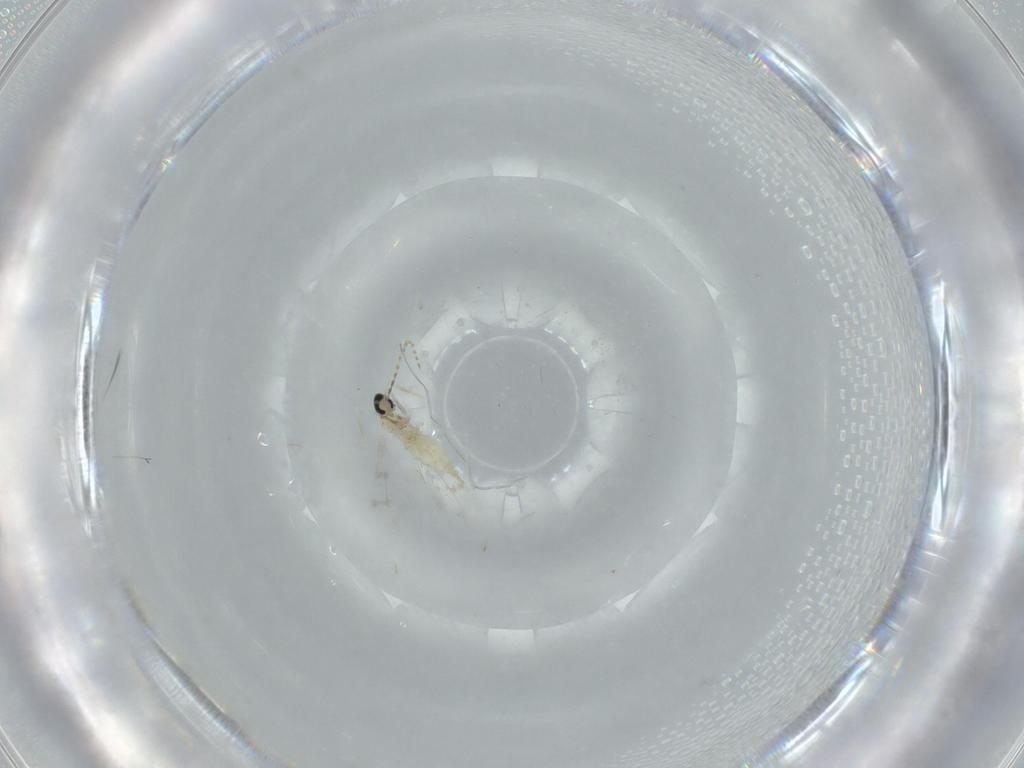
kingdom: Animalia
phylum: Arthropoda
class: Insecta
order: Diptera
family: Cecidomyiidae
